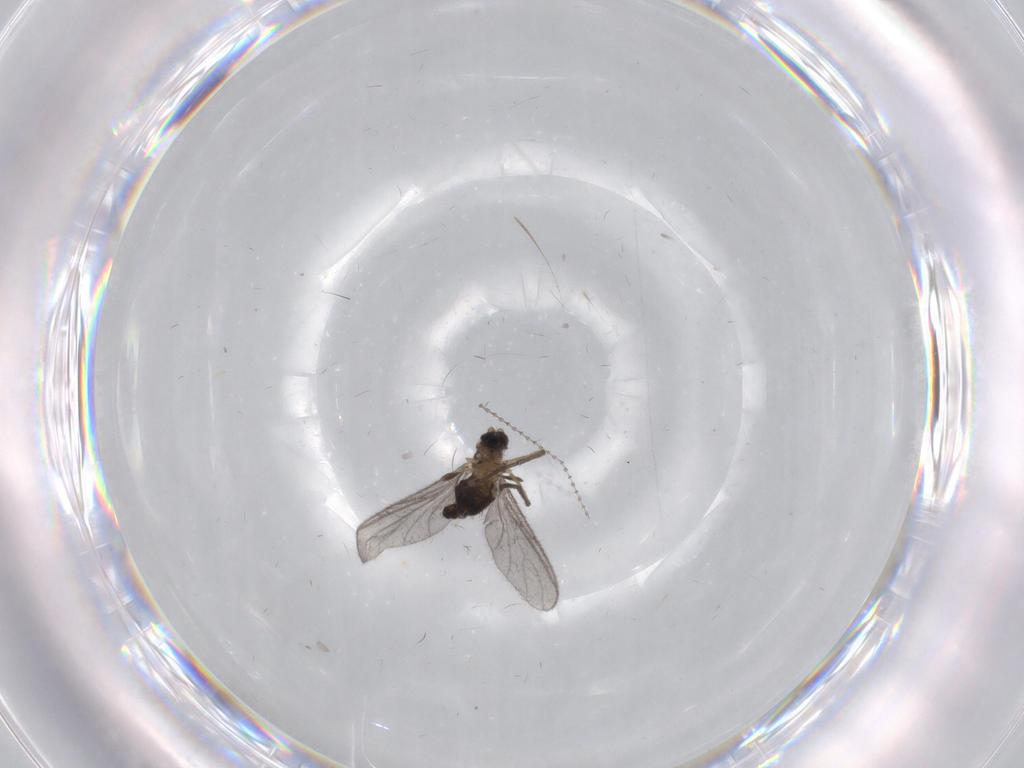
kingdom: Animalia
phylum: Arthropoda
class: Insecta
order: Diptera
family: Sciaridae
